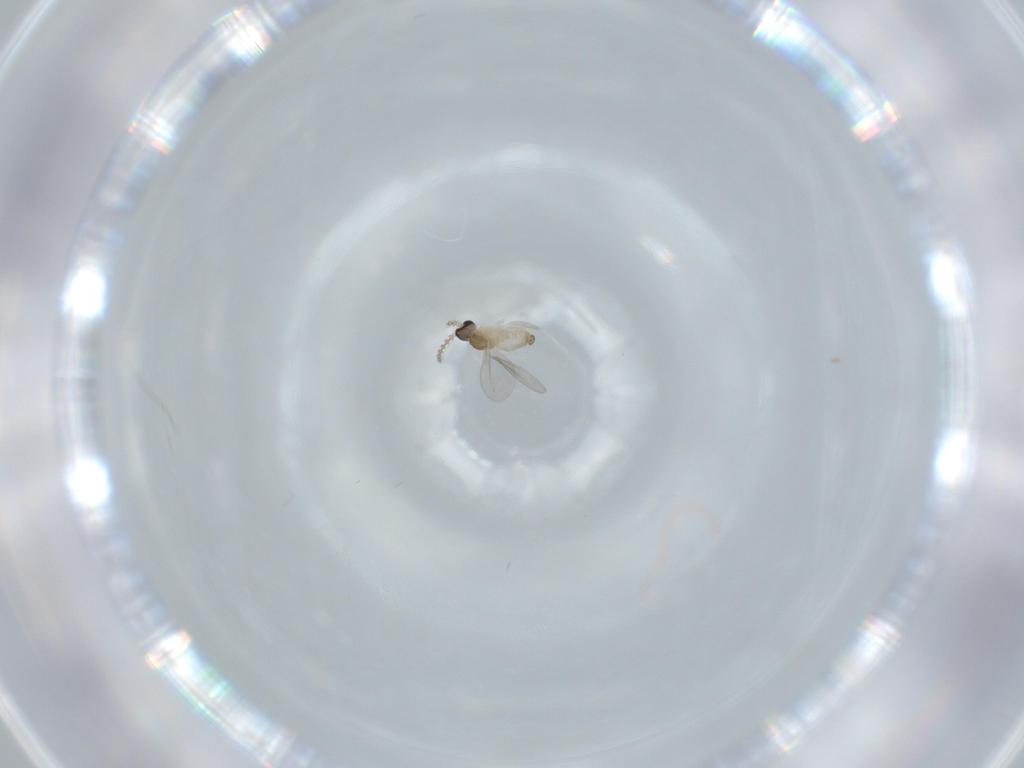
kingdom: Animalia
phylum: Arthropoda
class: Insecta
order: Diptera
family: Cecidomyiidae
